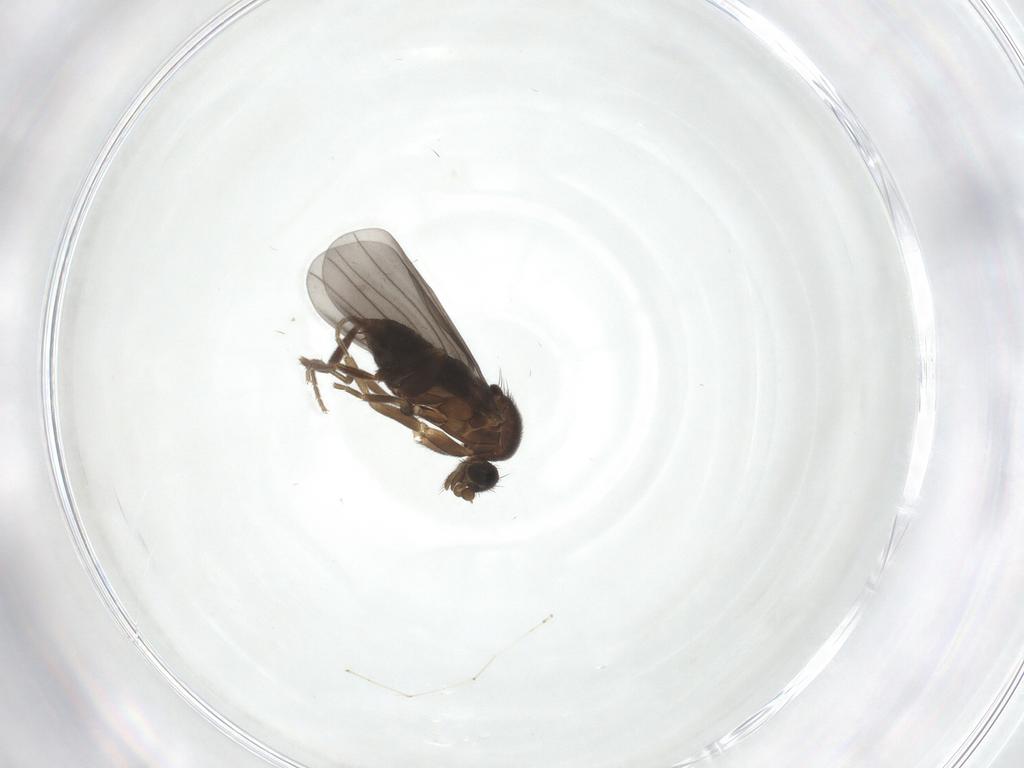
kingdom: Animalia
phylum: Arthropoda
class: Insecta
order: Diptera
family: Phoridae
